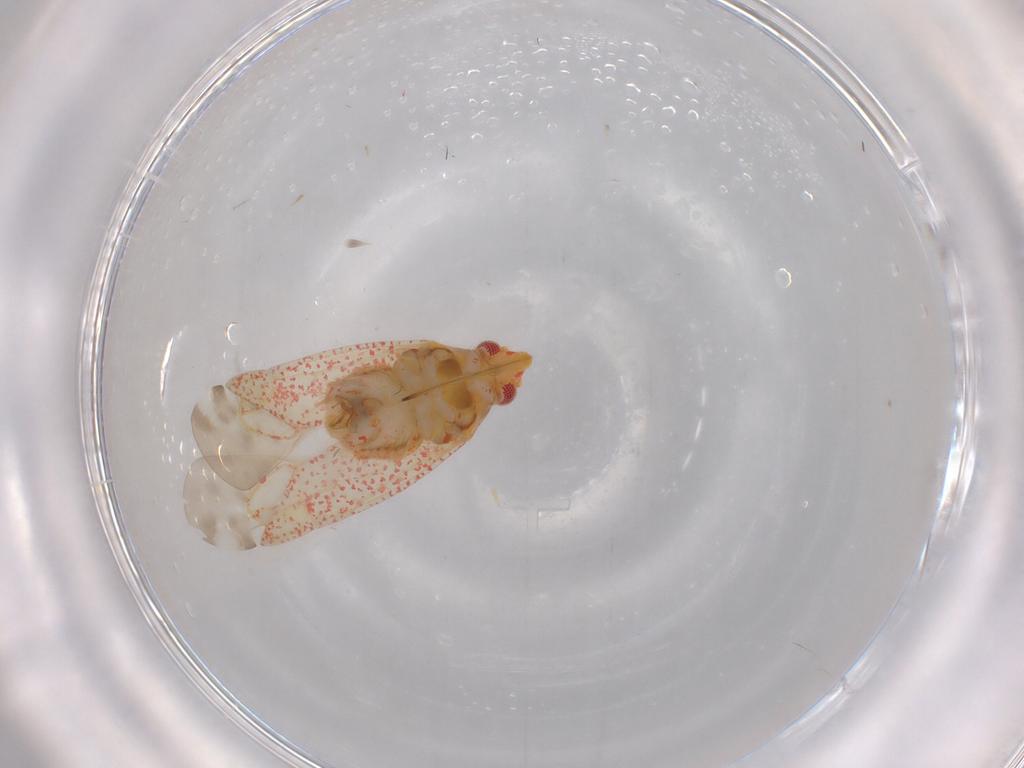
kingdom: Animalia
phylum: Arthropoda
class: Insecta
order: Hemiptera
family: Miridae
